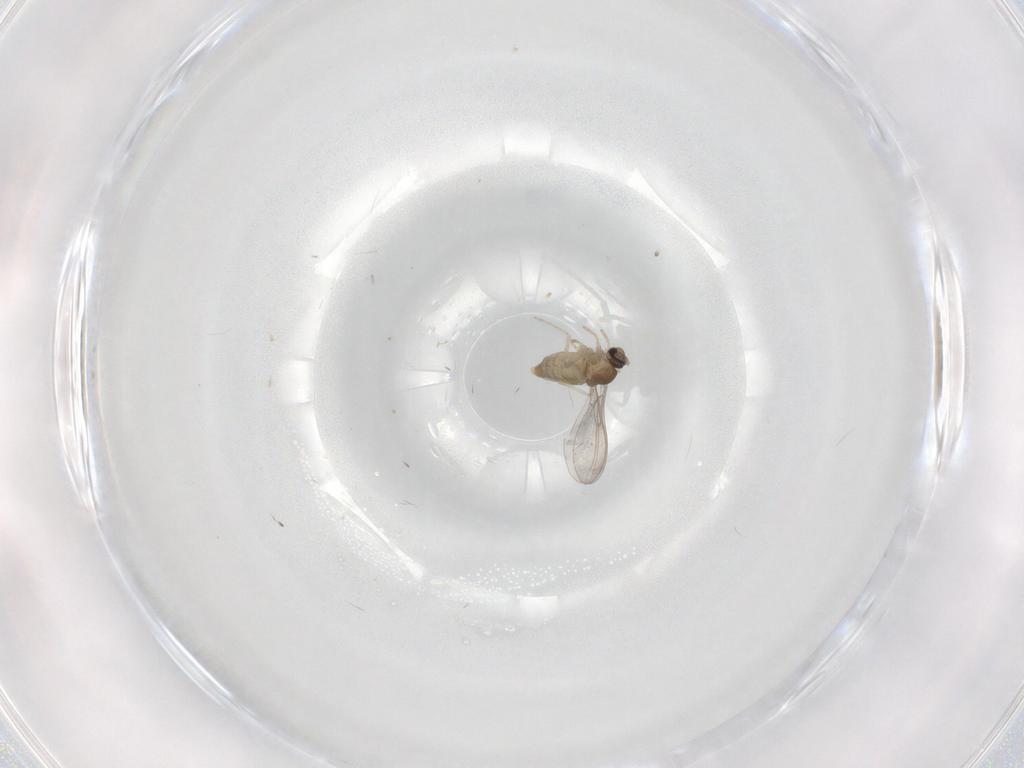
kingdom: Animalia
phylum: Arthropoda
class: Insecta
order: Diptera
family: Cecidomyiidae
